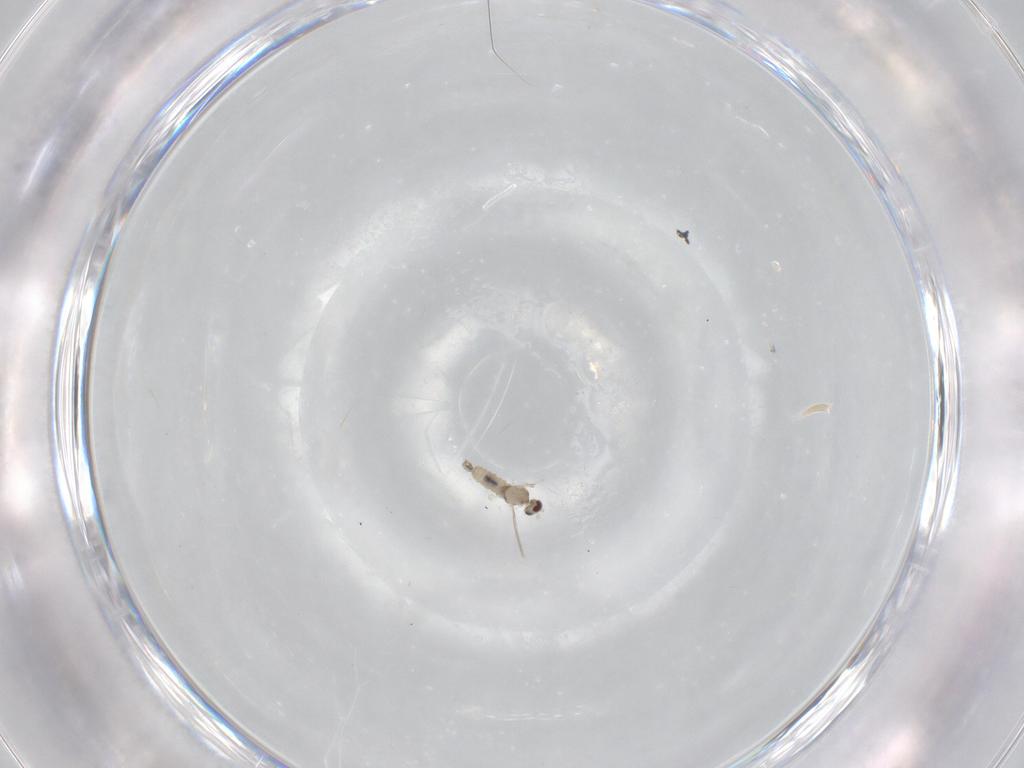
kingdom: Animalia
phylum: Arthropoda
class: Insecta
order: Diptera
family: Cecidomyiidae
